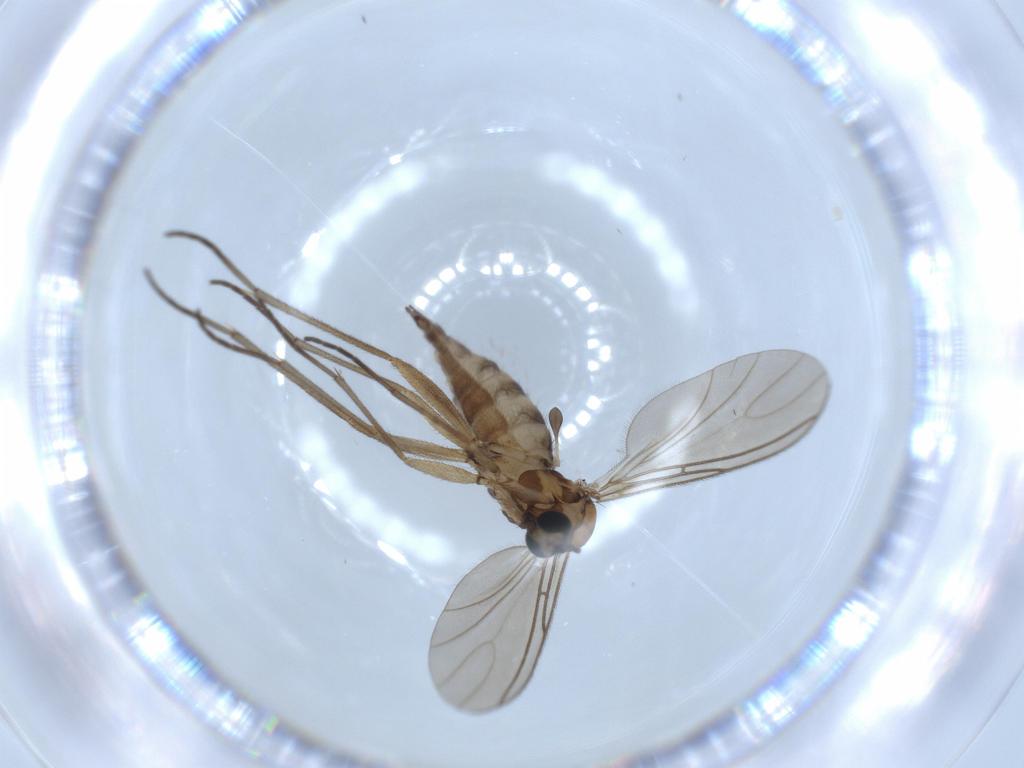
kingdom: Animalia
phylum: Arthropoda
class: Insecta
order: Diptera
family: Sciaridae
